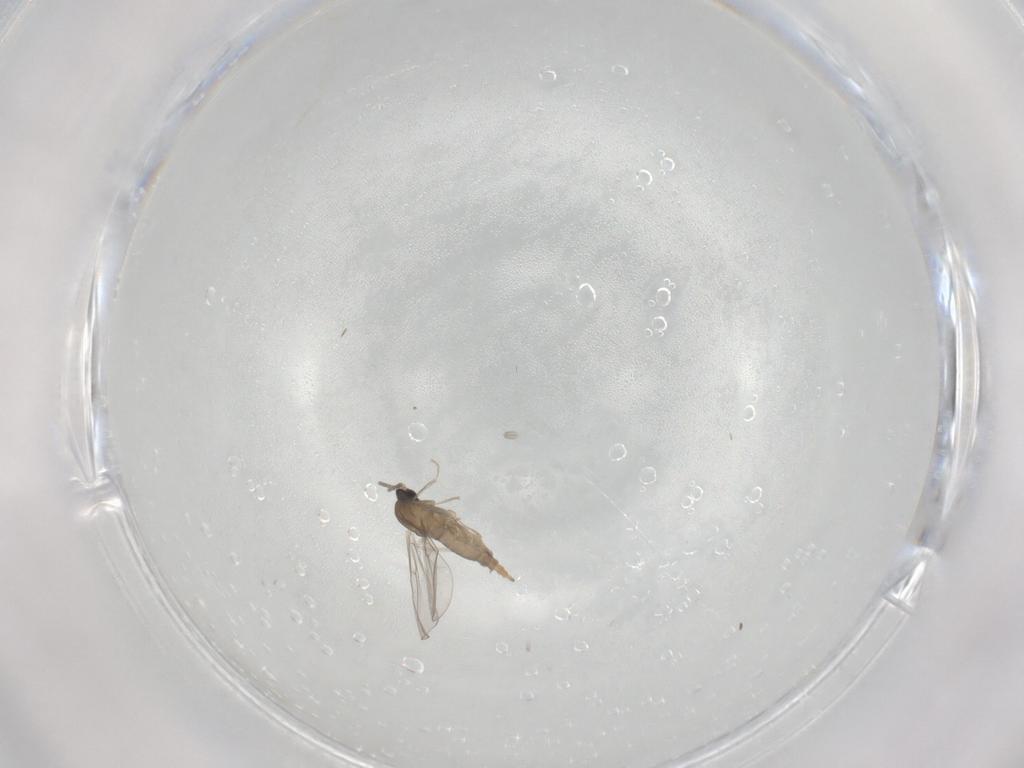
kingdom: Animalia
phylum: Arthropoda
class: Insecta
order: Diptera
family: Cecidomyiidae
